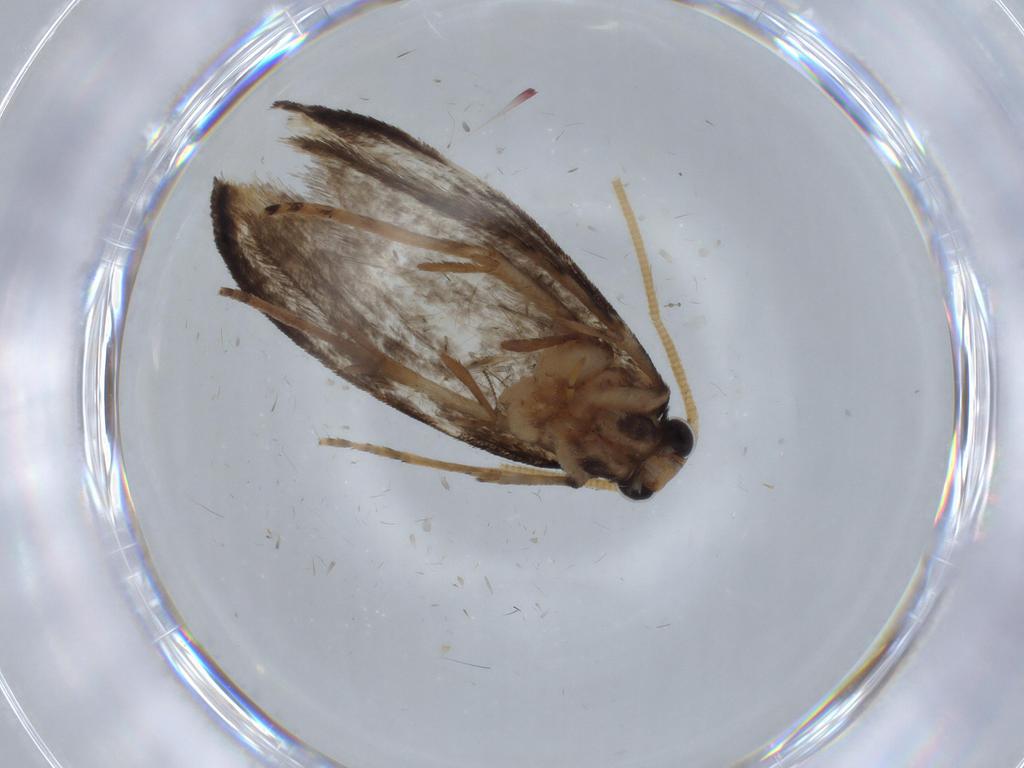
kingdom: Animalia
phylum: Arthropoda
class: Insecta
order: Lepidoptera
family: Tineidae
